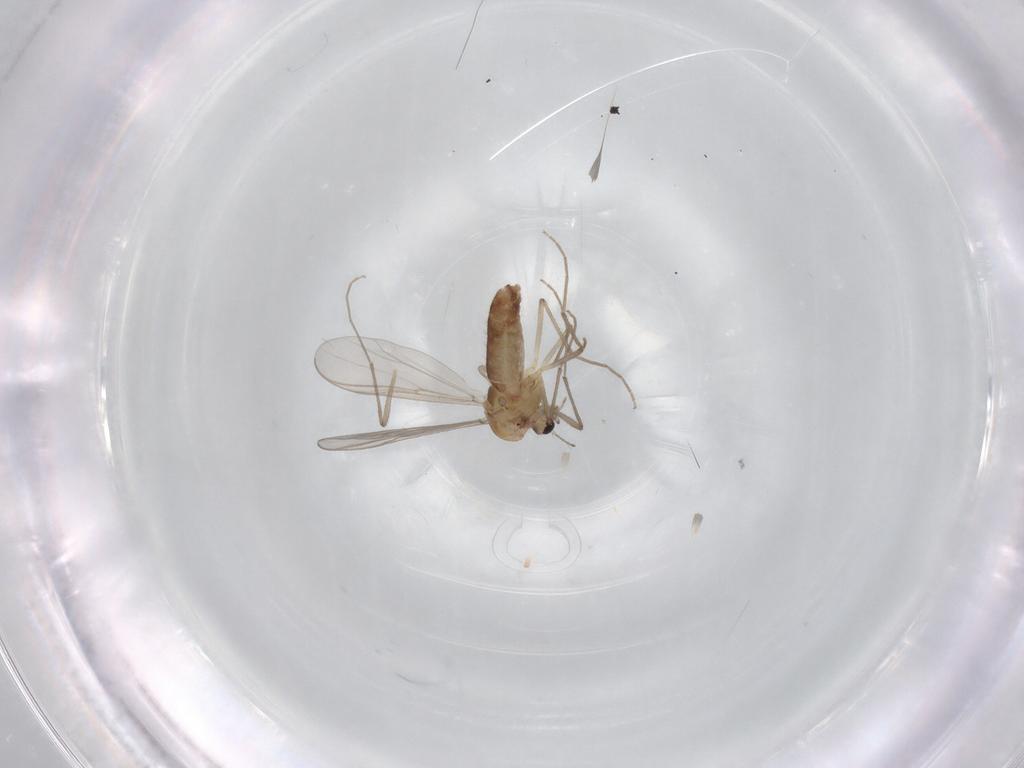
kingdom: Animalia
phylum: Arthropoda
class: Insecta
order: Diptera
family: Chironomidae
